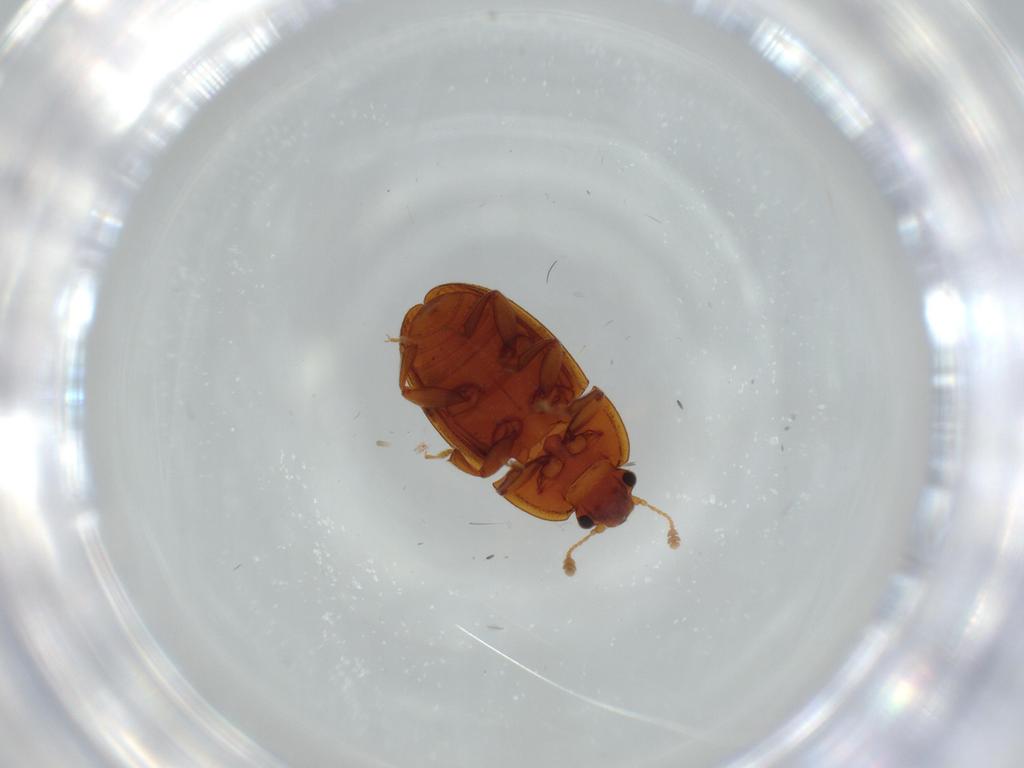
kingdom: Animalia
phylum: Arthropoda
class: Insecta
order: Coleoptera
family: Nitidulidae
